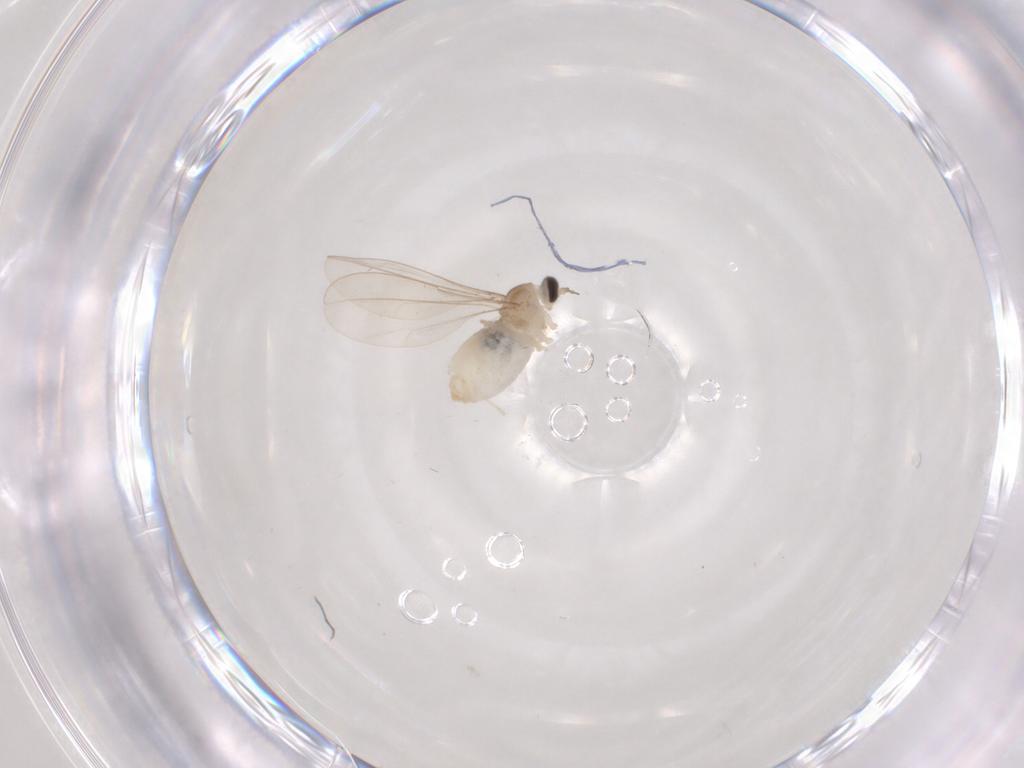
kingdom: Animalia
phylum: Arthropoda
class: Insecta
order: Diptera
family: Cecidomyiidae
